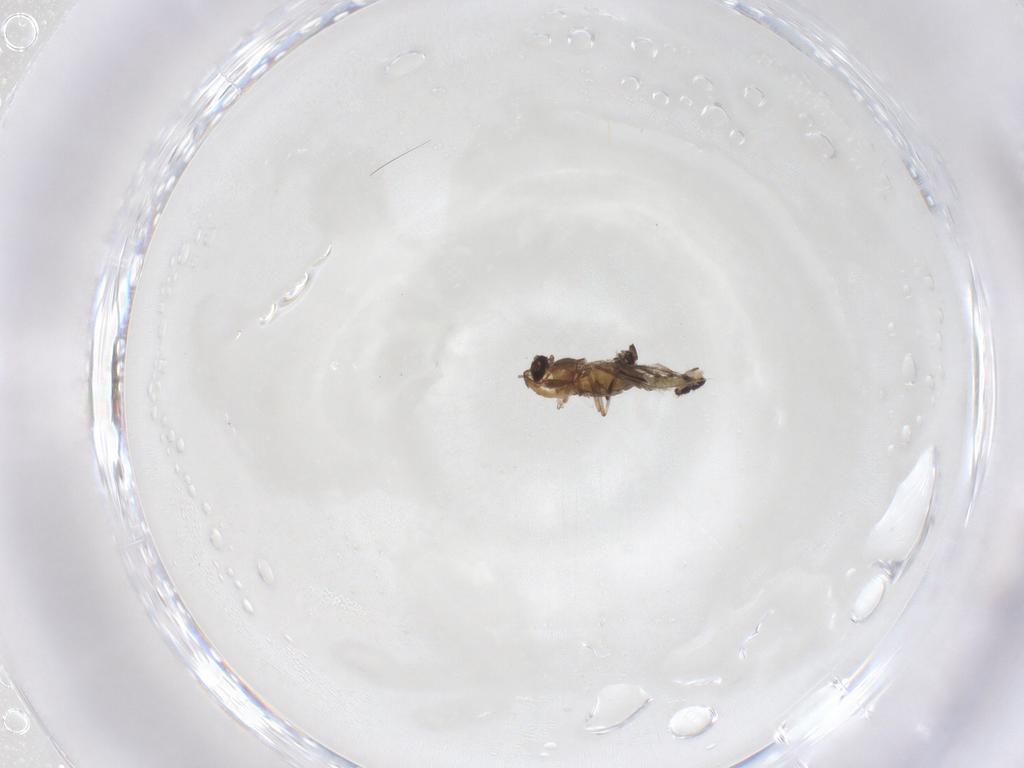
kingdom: Animalia
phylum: Arthropoda
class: Insecta
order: Diptera
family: Chironomidae
